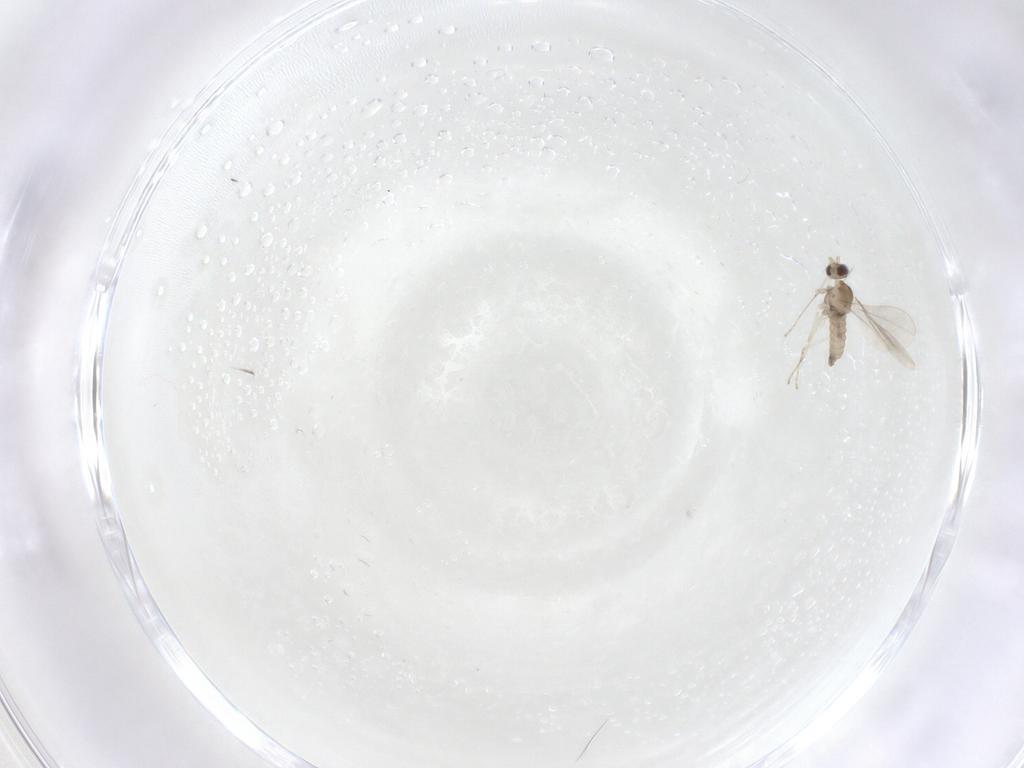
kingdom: Animalia
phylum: Arthropoda
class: Insecta
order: Diptera
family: Cecidomyiidae
